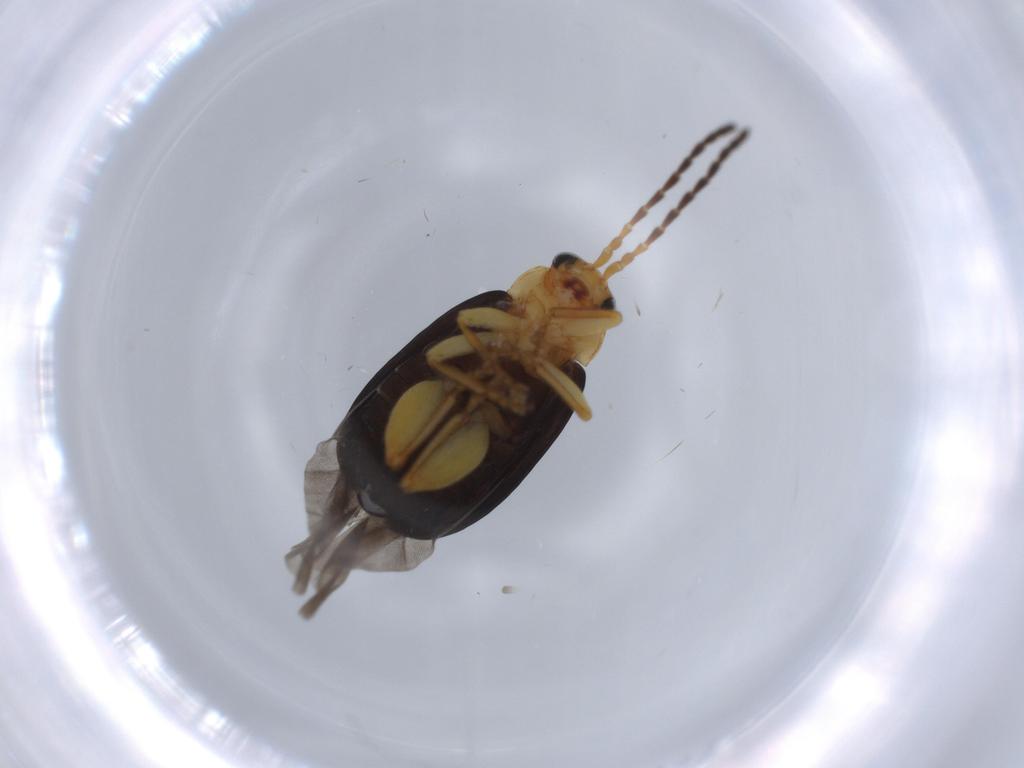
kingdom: Animalia
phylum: Arthropoda
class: Insecta
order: Coleoptera
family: Chrysomelidae
